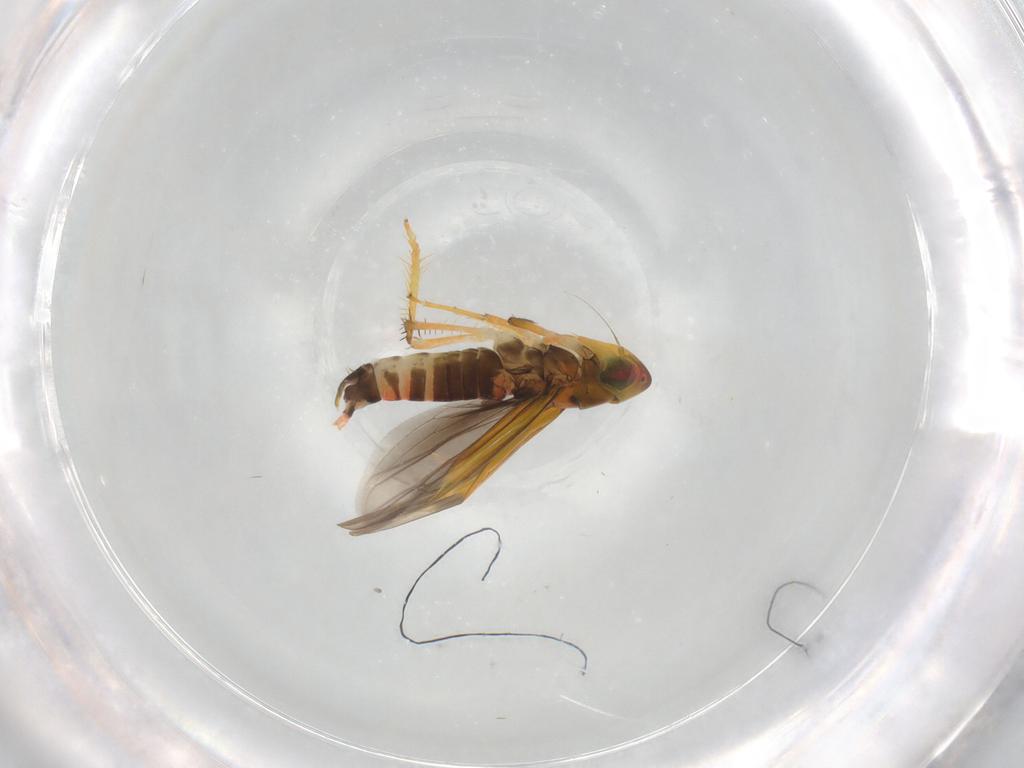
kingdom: Animalia
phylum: Arthropoda
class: Insecta
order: Hemiptera
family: Cicadellidae
